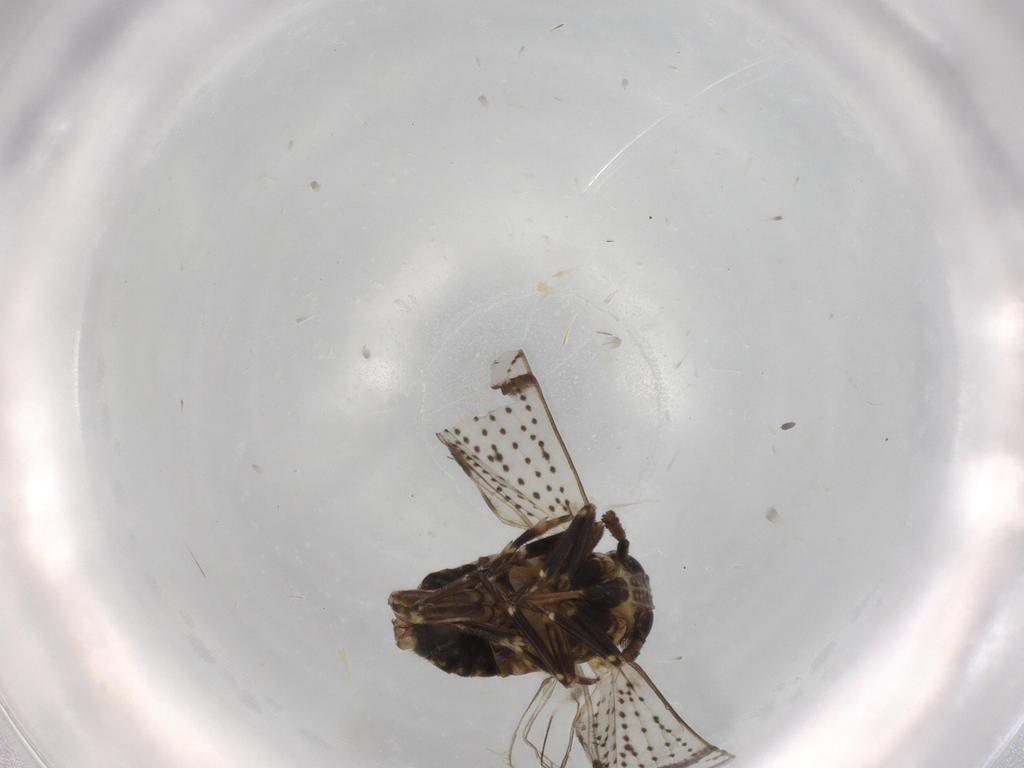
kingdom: Animalia
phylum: Arthropoda
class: Insecta
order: Hemiptera
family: Delphacidae
